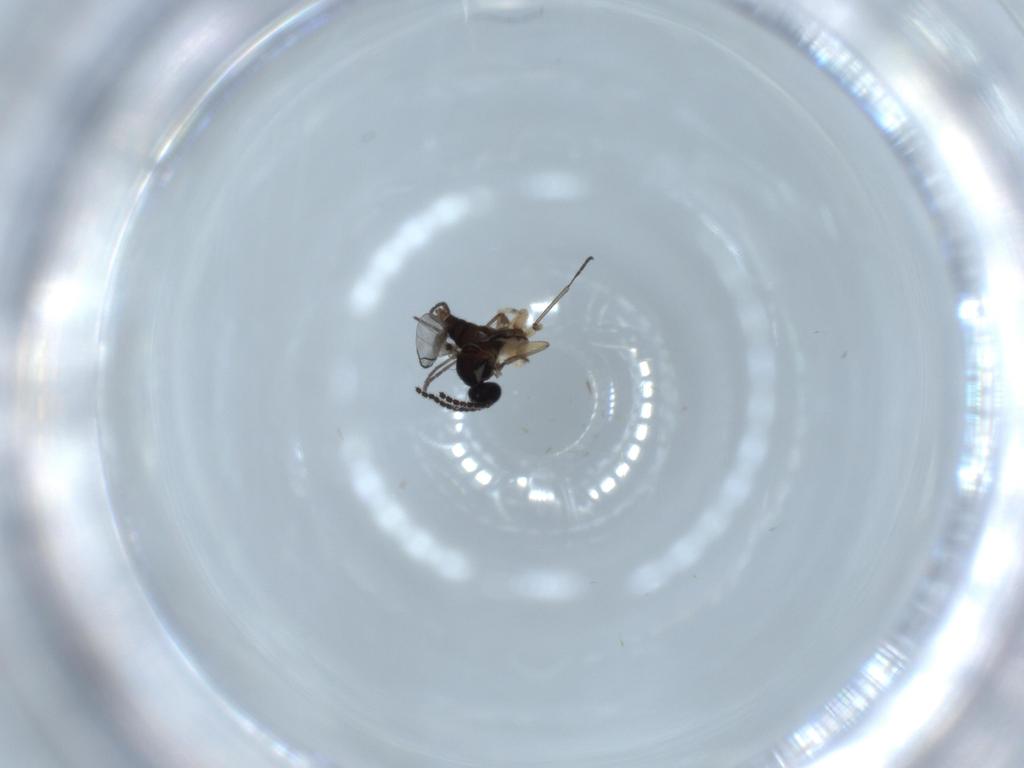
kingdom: Animalia
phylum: Arthropoda
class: Insecta
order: Diptera
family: Sciaridae
